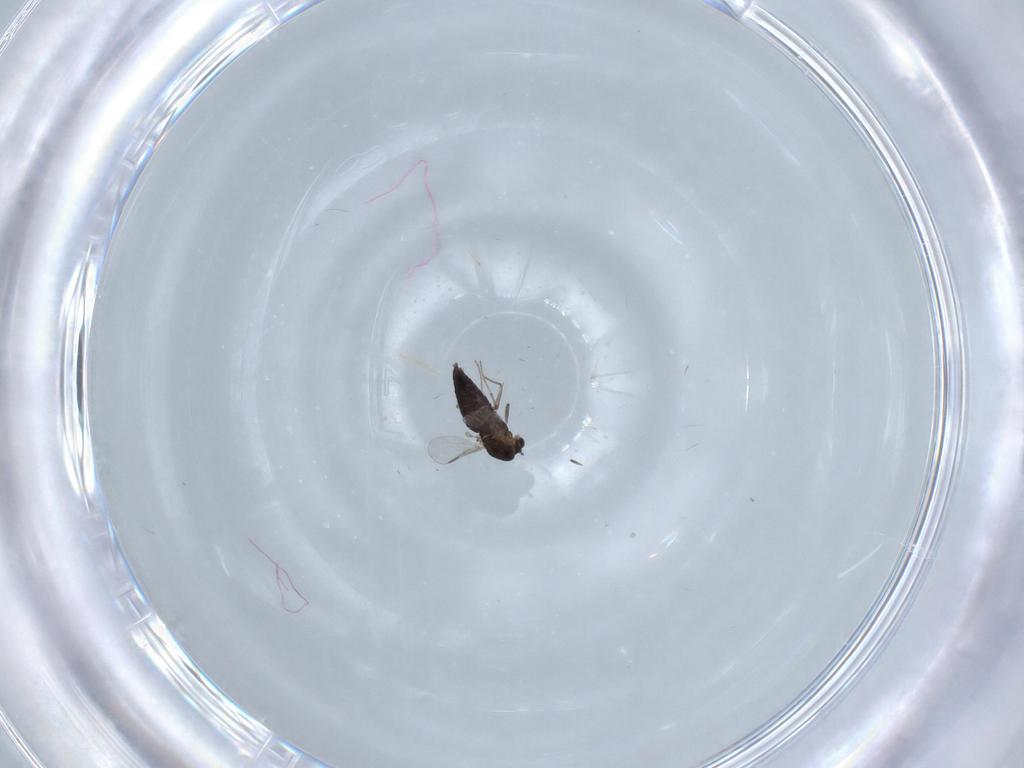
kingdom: Animalia
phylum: Arthropoda
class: Insecta
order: Diptera
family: Chironomidae
